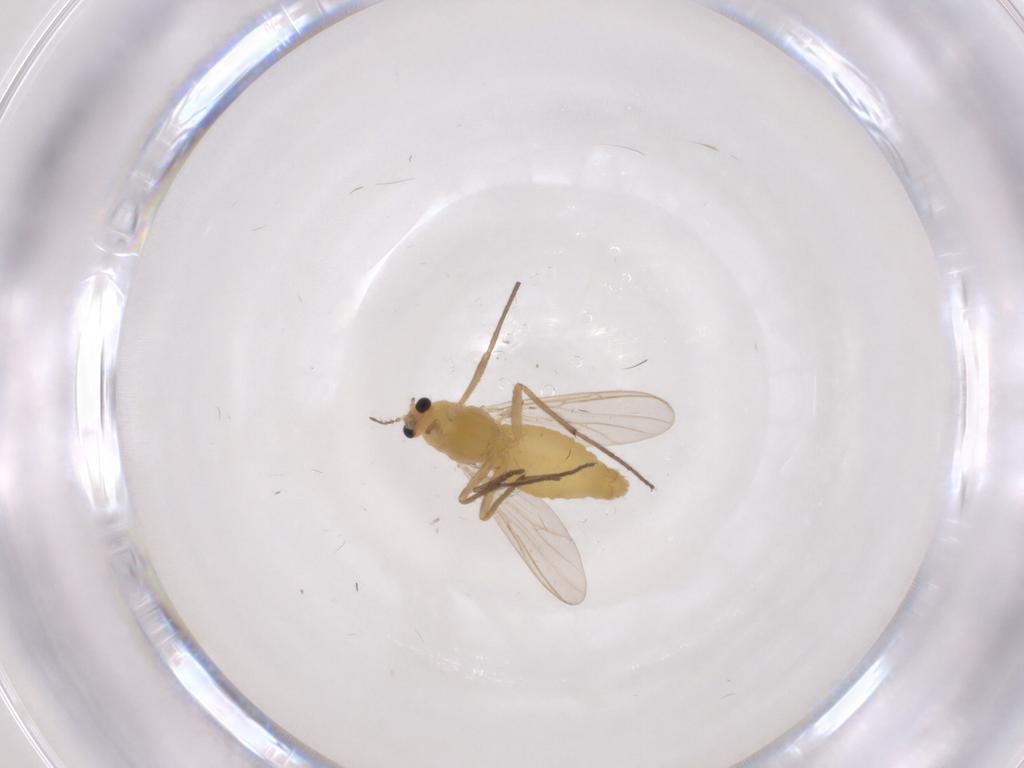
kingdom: Animalia
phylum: Arthropoda
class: Insecta
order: Diptera
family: Chironomidae
